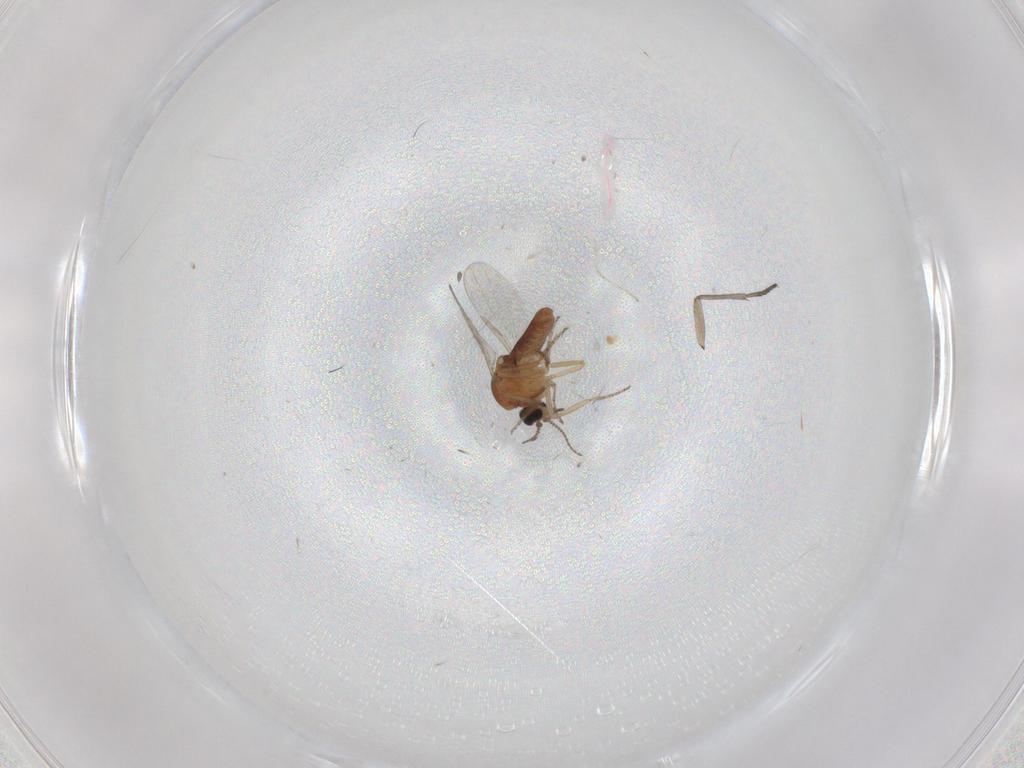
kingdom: Animalia
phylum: Arthropoda
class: Insecta
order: Diptera
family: Ceratopogonidae
